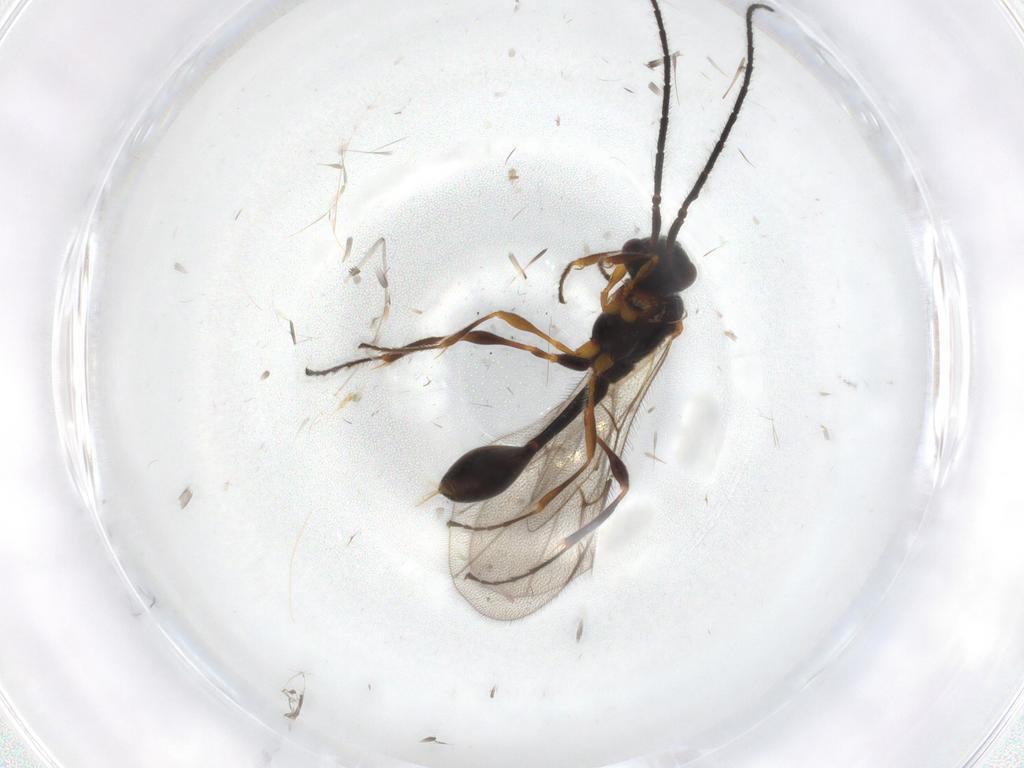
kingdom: Animalia
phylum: Arthropoda
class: Insecta
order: Hymenoptera
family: Diapriidae
